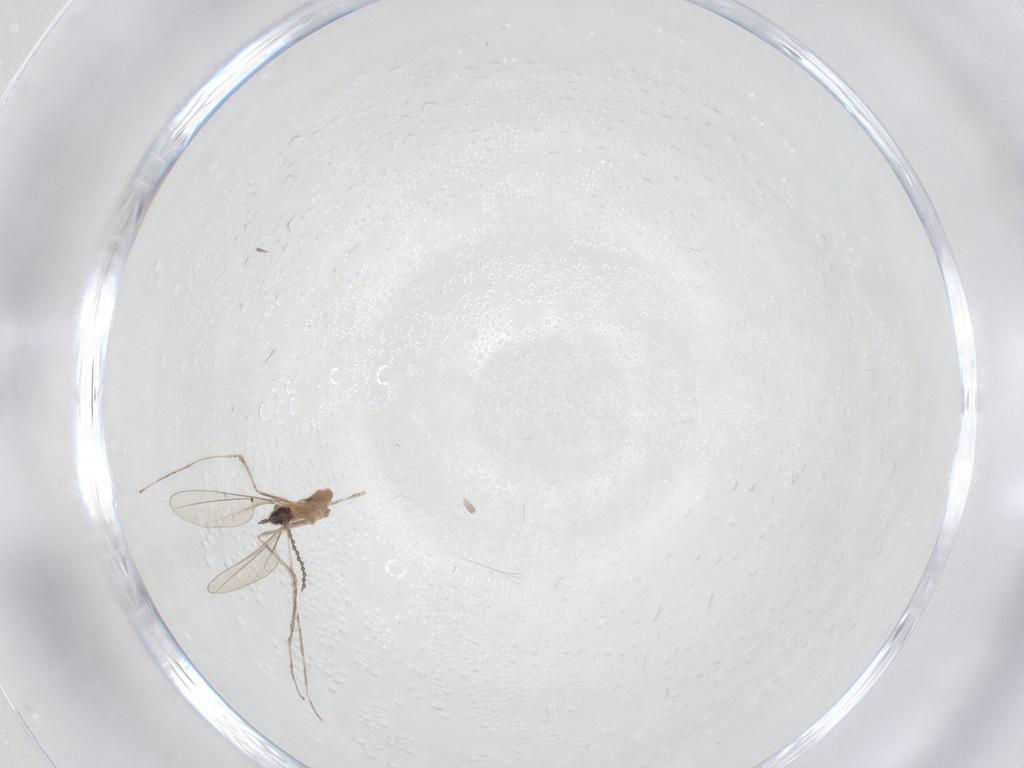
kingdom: Animalia
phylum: Arthropoda
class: Insecta
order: Diptera
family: Cecidomyiidae
